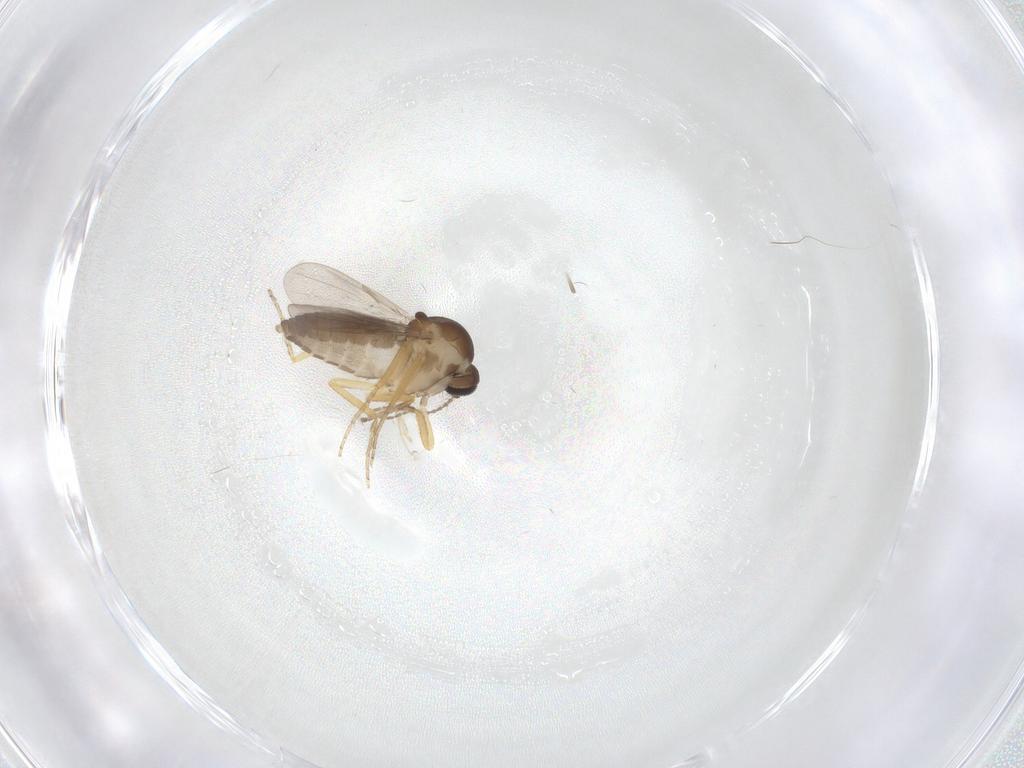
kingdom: Animalia
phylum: Arthropoda
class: Insecta
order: Diptera
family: Ceratopogonidae
